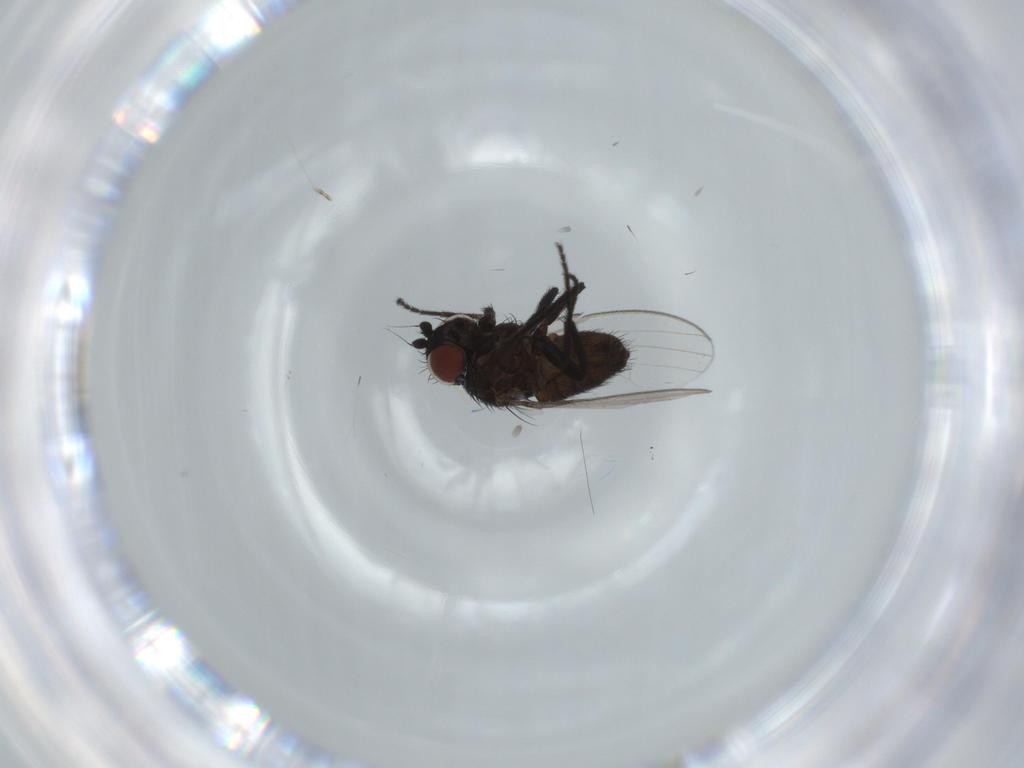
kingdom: Animalia
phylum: Arthropoda
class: Insecta
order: Diptera
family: Milichiidae
